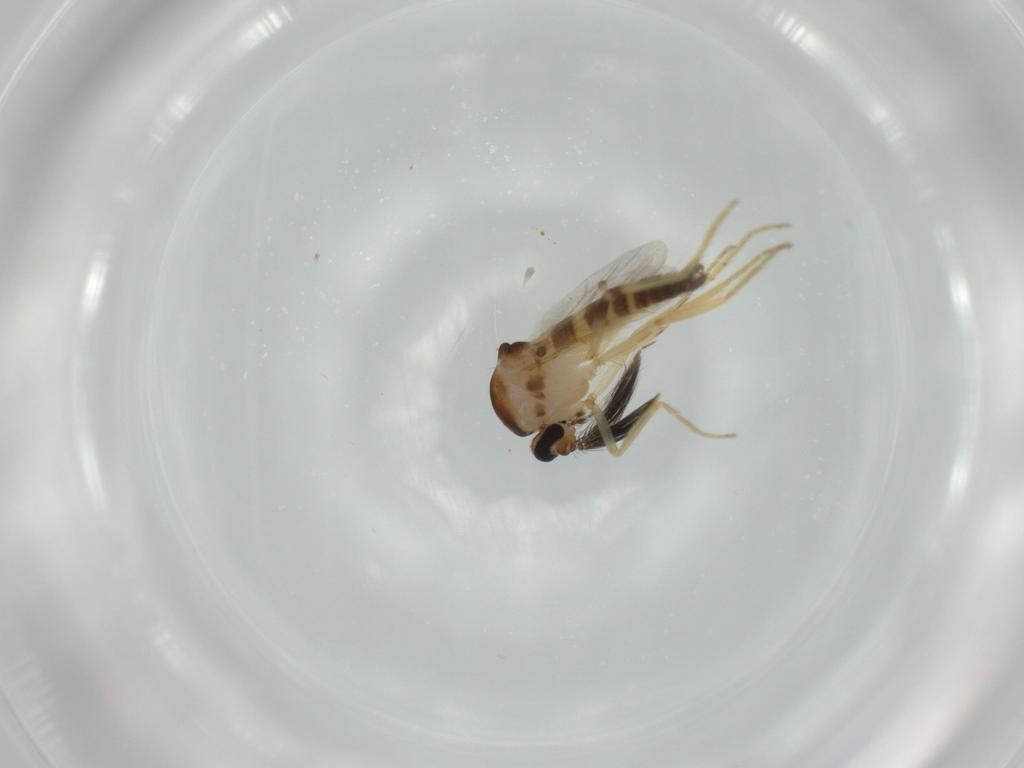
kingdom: Animalia
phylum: Arthropoda
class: Insecta
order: Diptera
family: Ceratopogonidae
